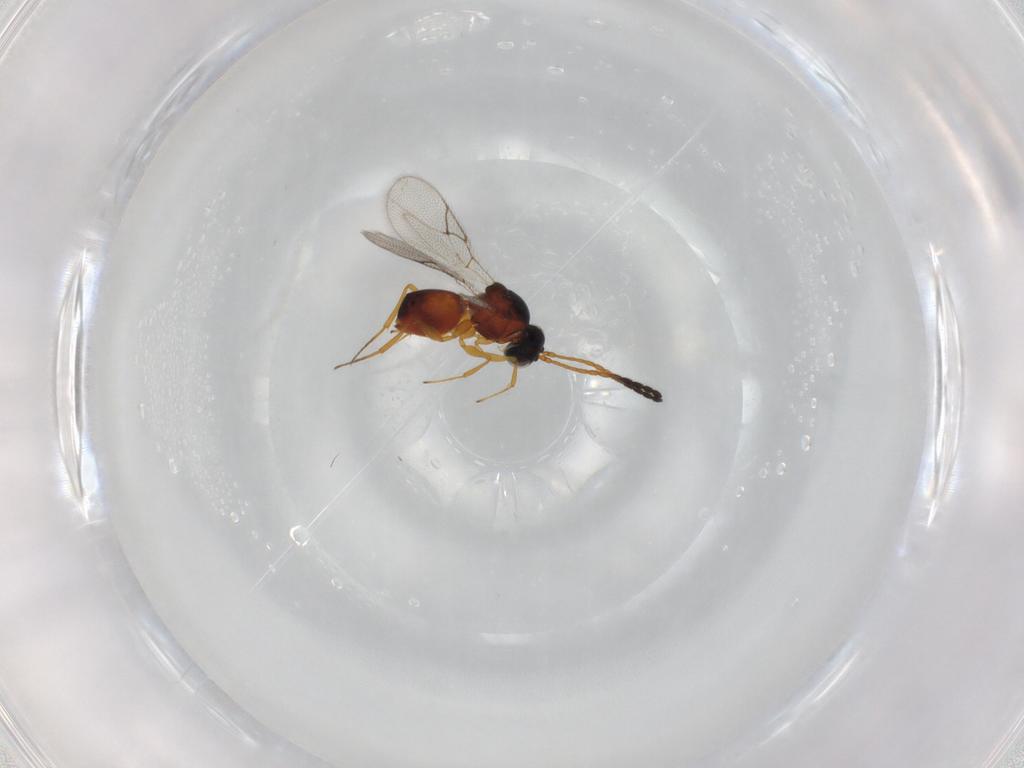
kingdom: Animalia
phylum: Arthropoda
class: Insecta
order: Hymenoptera
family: Figitidae
